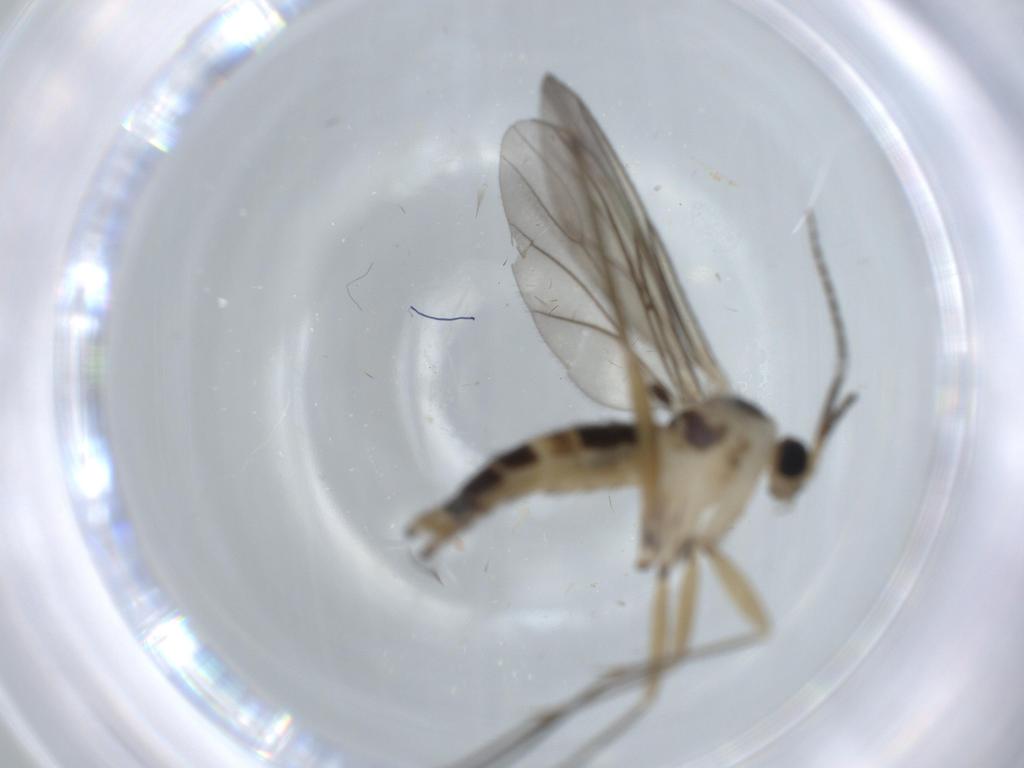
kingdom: Animalia
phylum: Arthropoda
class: Insecta
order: Diptera
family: Sciaridae
